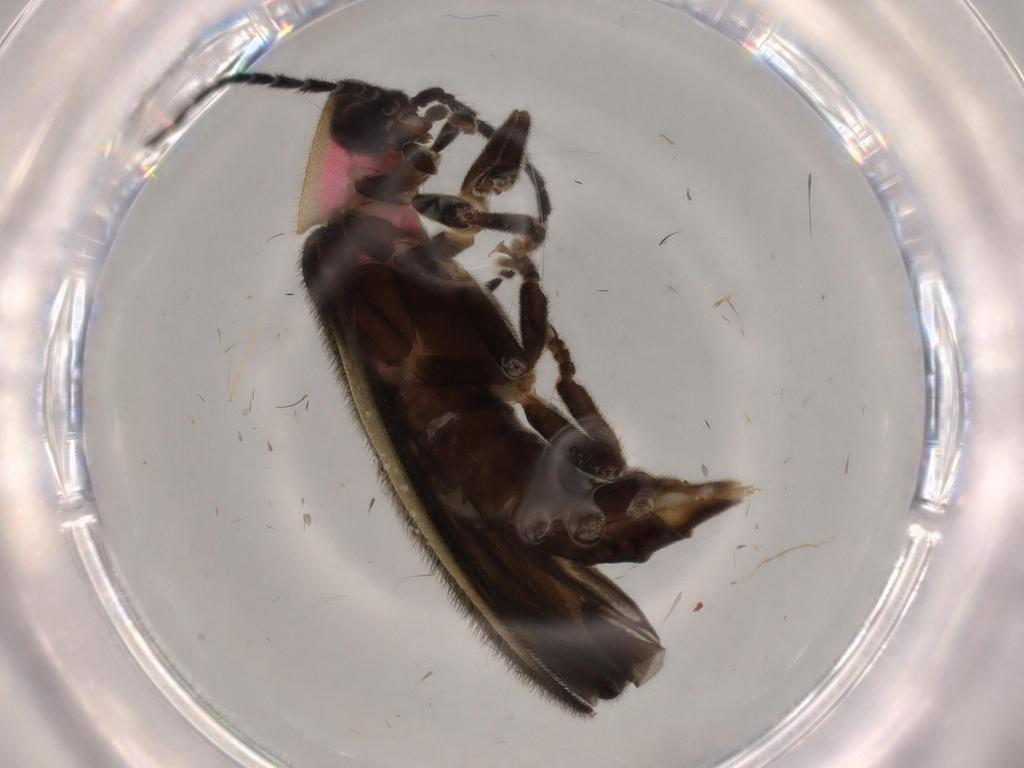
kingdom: Animalia
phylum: Arthropoda
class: Insecta
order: Coleoptera
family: Lampyridae
